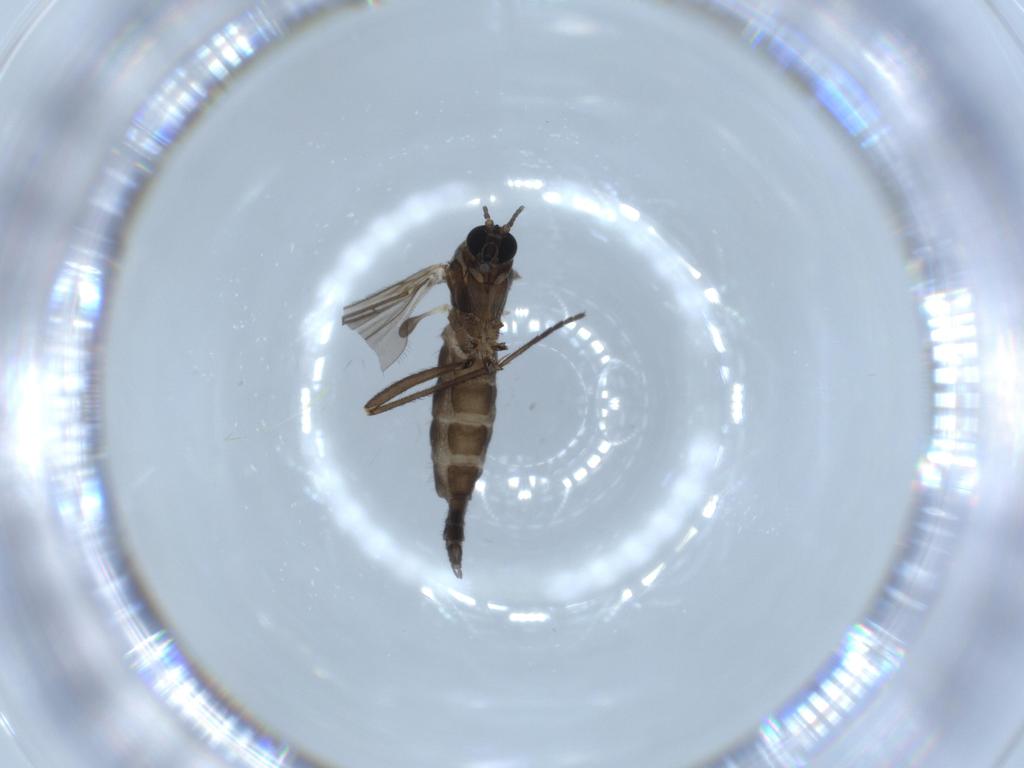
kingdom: Animalia
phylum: Arthropoda
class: Insecta
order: Diptera
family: Sciaridae
